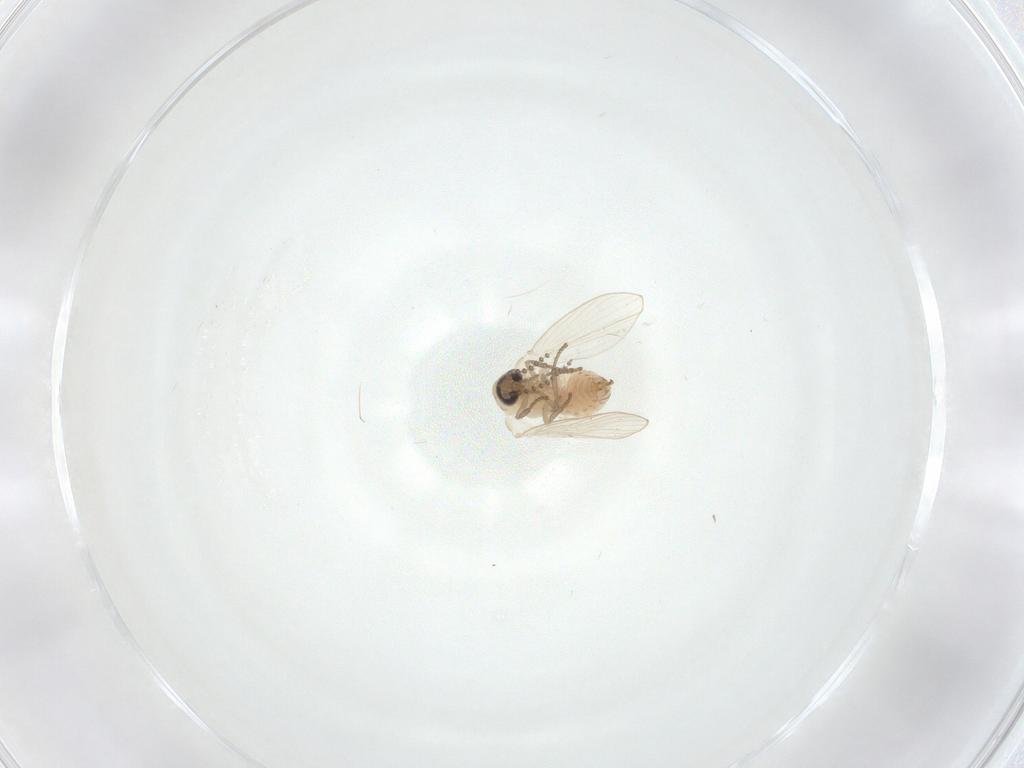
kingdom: Animalia
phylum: Arthropoda
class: Insecta
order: Diptera
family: Psychodidae
